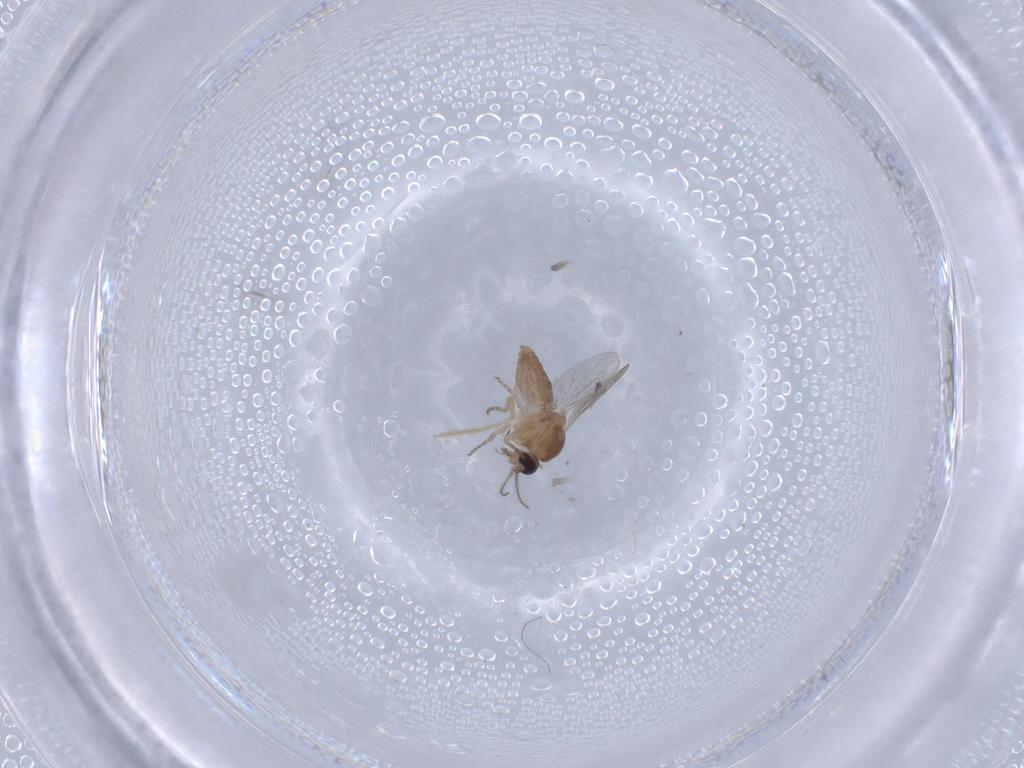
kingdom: Animalia
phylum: Arthropoda
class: Insecta
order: Diptera
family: Ceratopogonidae
